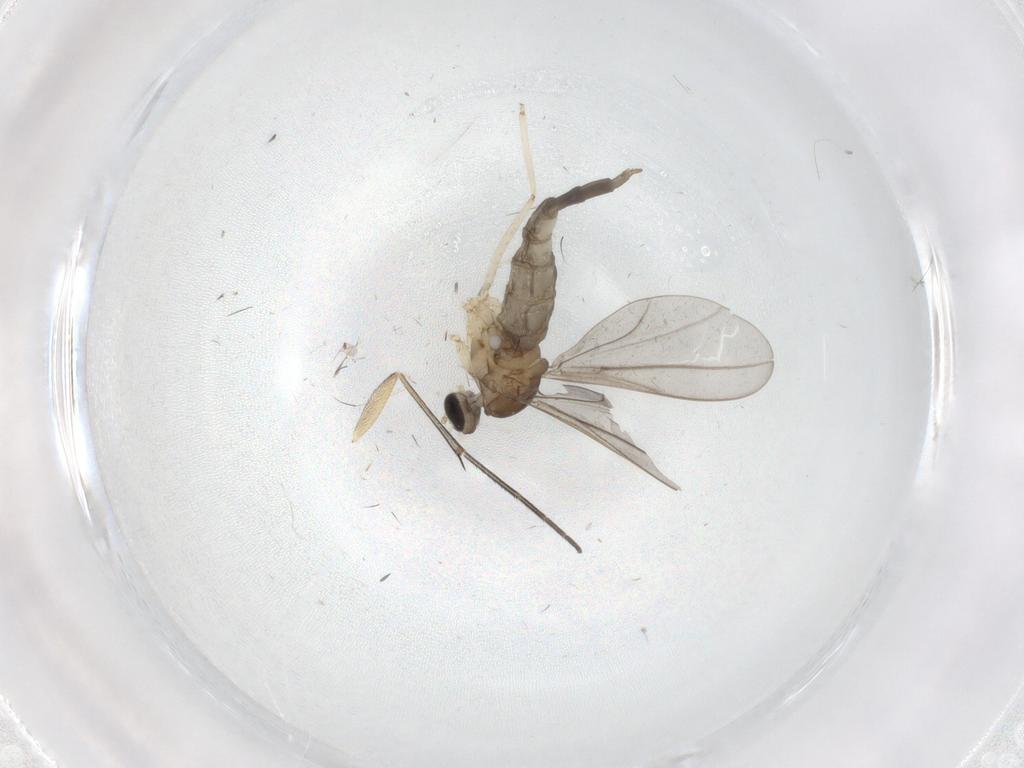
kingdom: Animalia
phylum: Arthropoda
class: Insecta
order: Diptera
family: Cecidomyiidae
